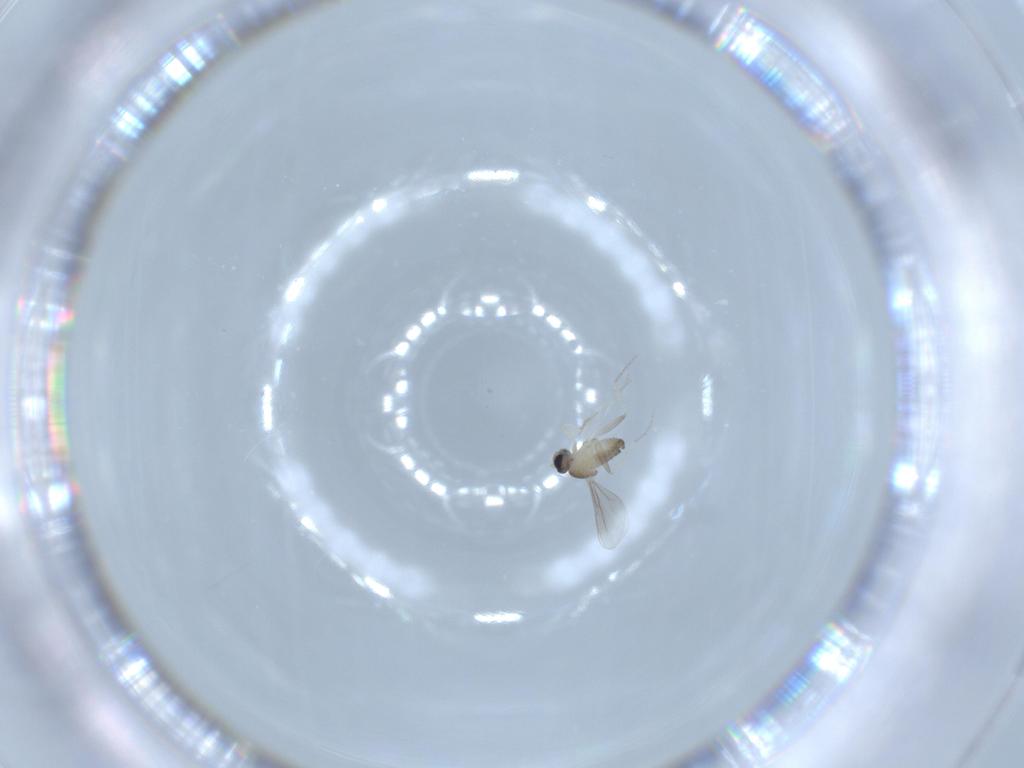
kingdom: Animalia
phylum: Arthropoda
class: Insecta
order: Diptera
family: Cecidomyiidae
